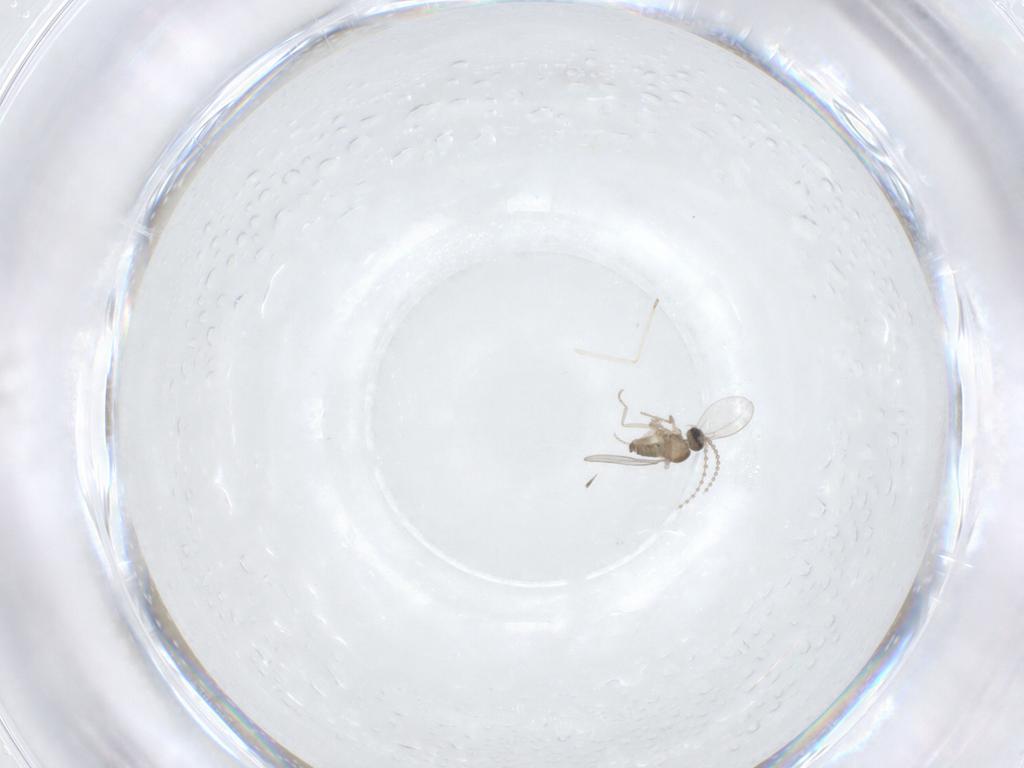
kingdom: Animalia
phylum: Arthropoda
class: Insecta
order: Diptera
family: Cecidomyiidae
